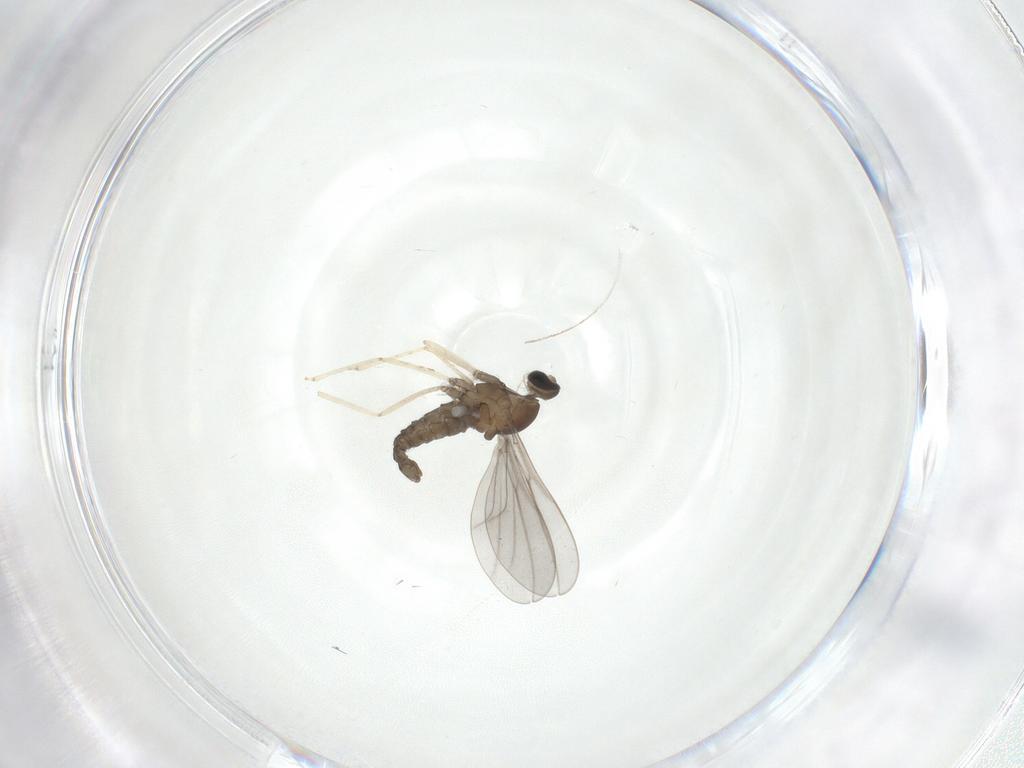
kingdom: Animalia
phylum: Arthropoda
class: Insecta
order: Diptera
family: Cecidomyiidae
